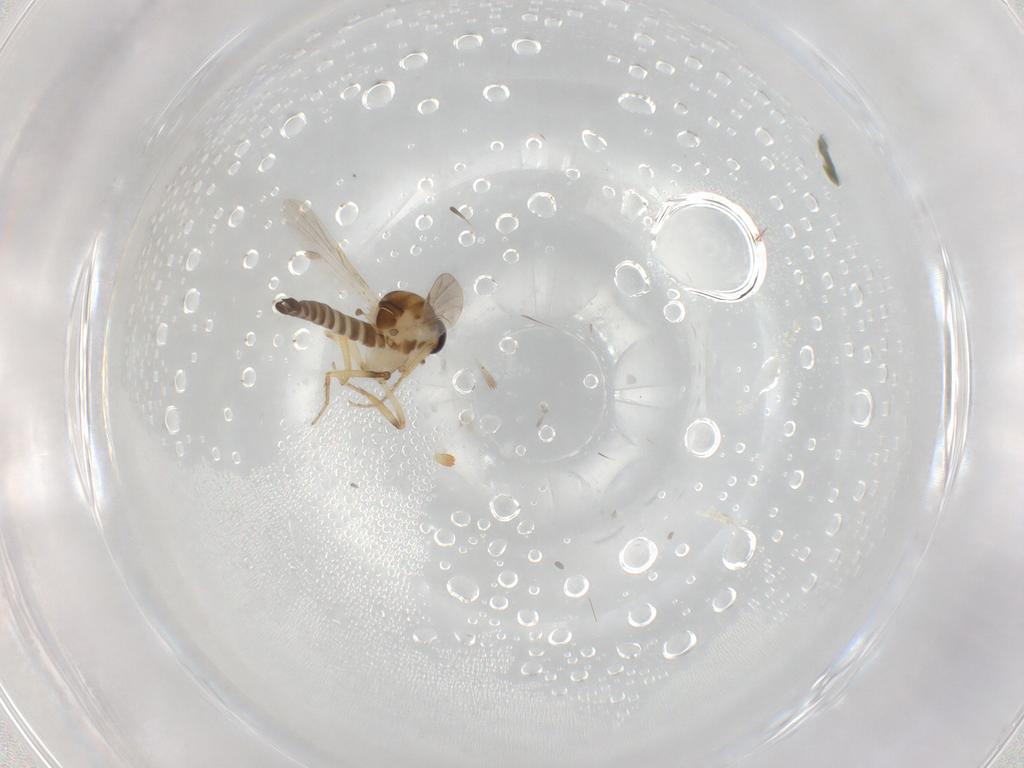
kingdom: Animalia
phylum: Arthropoda
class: Insecta
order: Diptera
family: Ceratopogonidae
